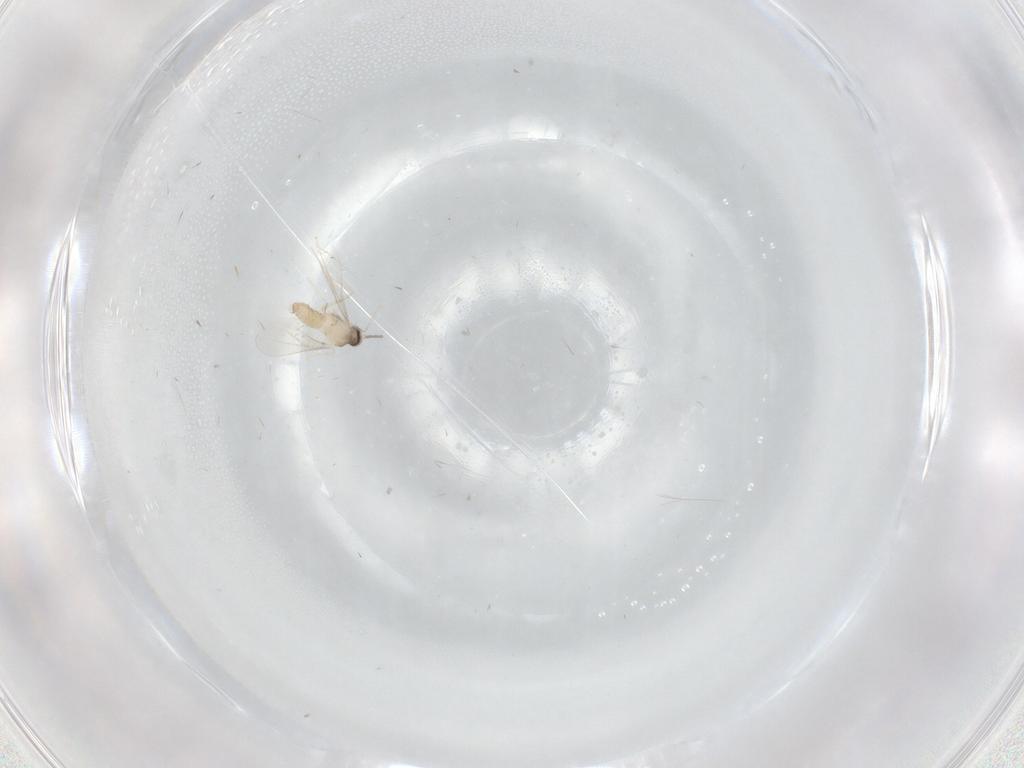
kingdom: Animalia
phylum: Arthropoda
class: Insecta
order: Diptera
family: Cecidomyiidae
